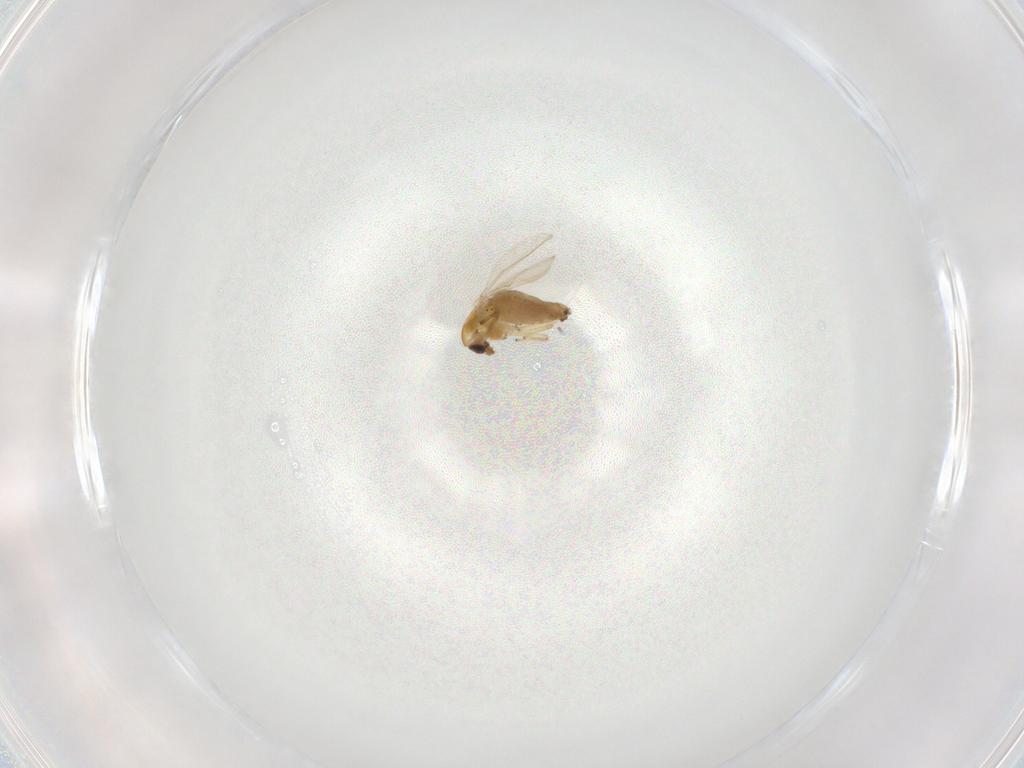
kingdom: Animalia
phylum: Arthropoda
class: Insecta
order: Diptera
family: Chironomidae
